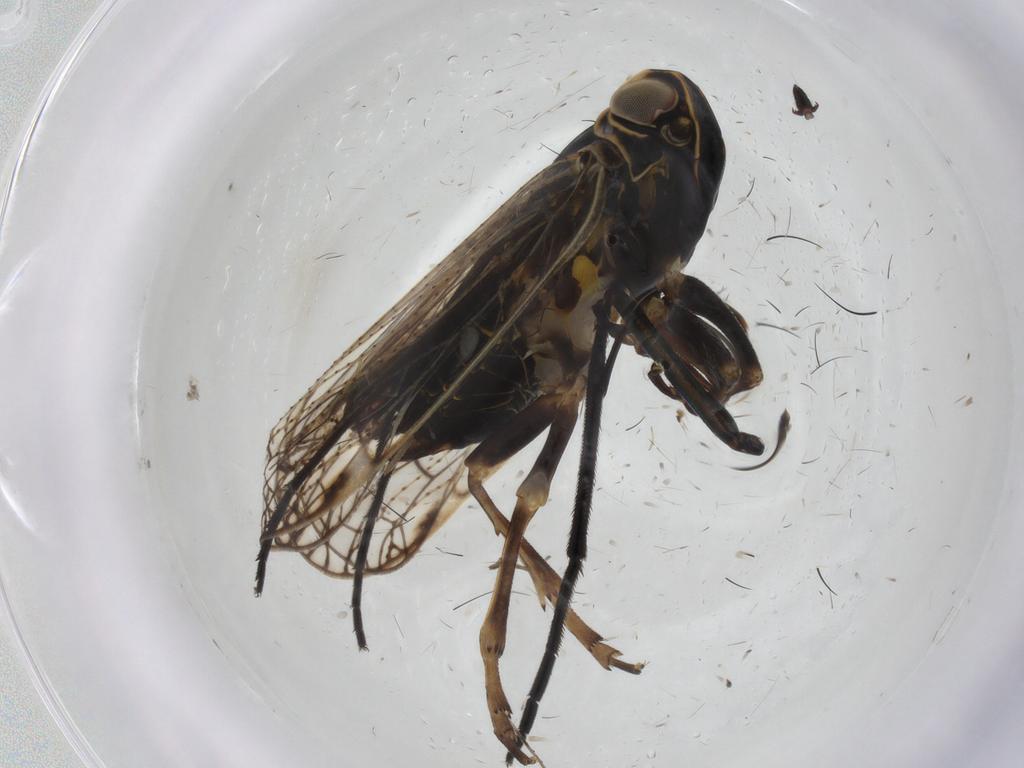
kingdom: Animalia
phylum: Arthropoda
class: Insecta
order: Hemiptera
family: Cixiidae
